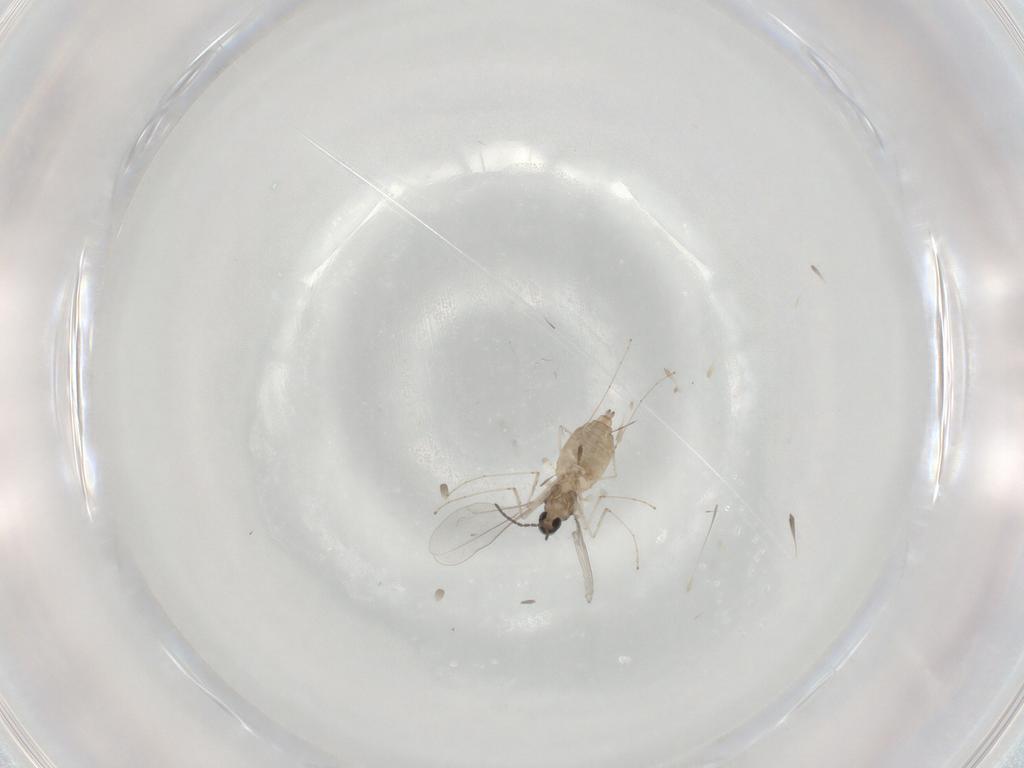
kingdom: Animalia
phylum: Arthropoda
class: Insecta
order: Diptera
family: Cecidomyiidae
